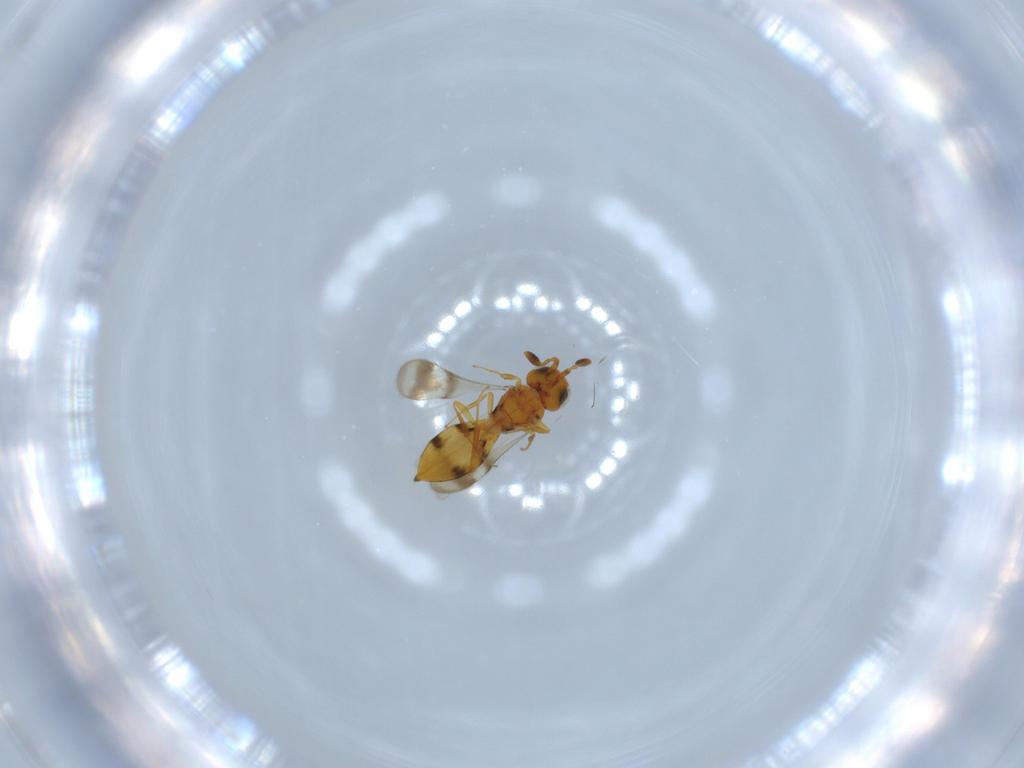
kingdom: Animalia
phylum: Arthropoda
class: Insecta
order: Hymenoptera
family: Scelionidae
